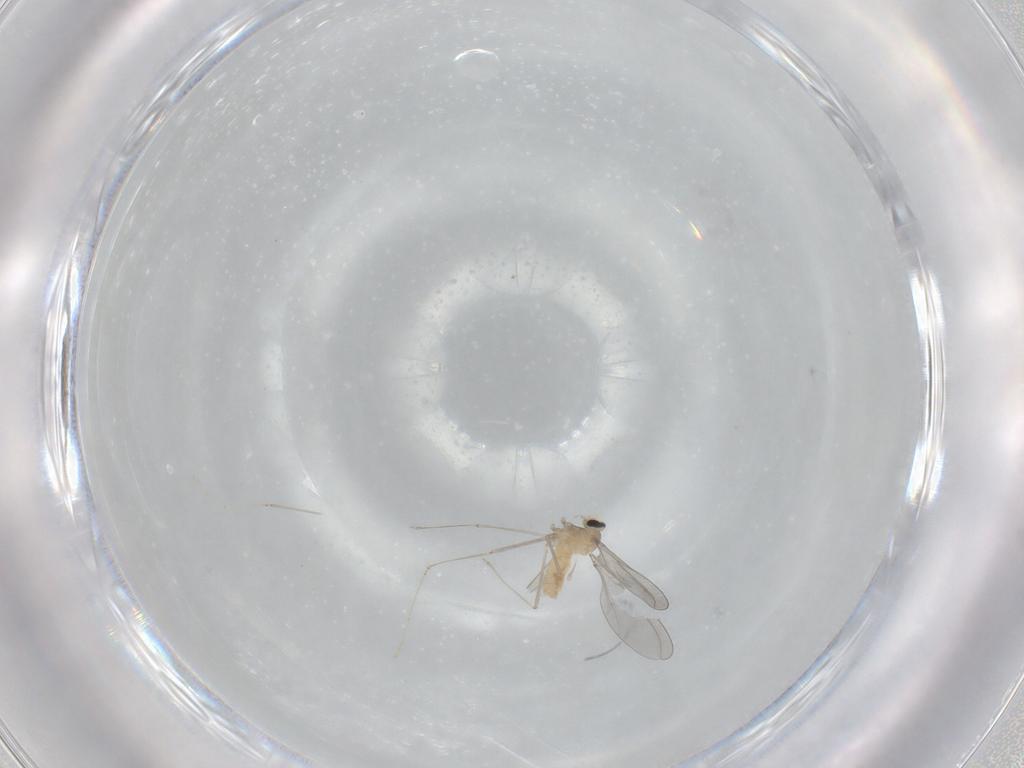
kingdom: Animalia
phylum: Arthropoda
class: Insecta
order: Diptera
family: Cecidomyiidae
